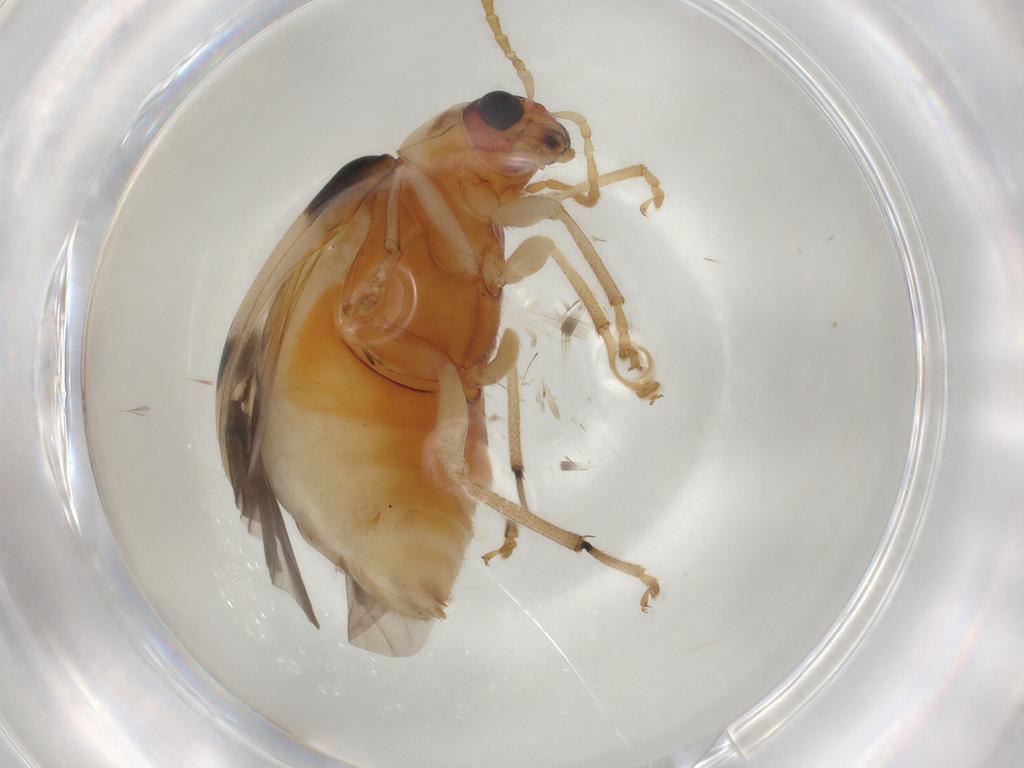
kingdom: Animalia
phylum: Arthropoda
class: Insecta
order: Coleoptera
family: Chrysomelidae
